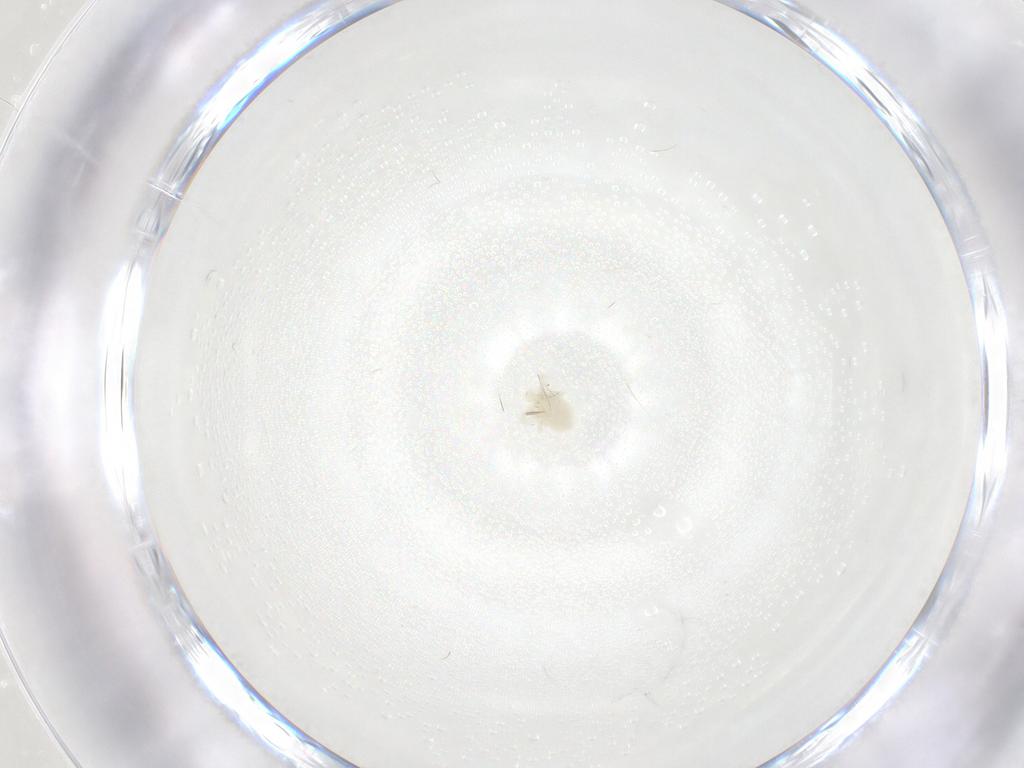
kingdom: Animalia
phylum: Arthropoda
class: Arachnida
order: Trombidiformes
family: Anystidae
